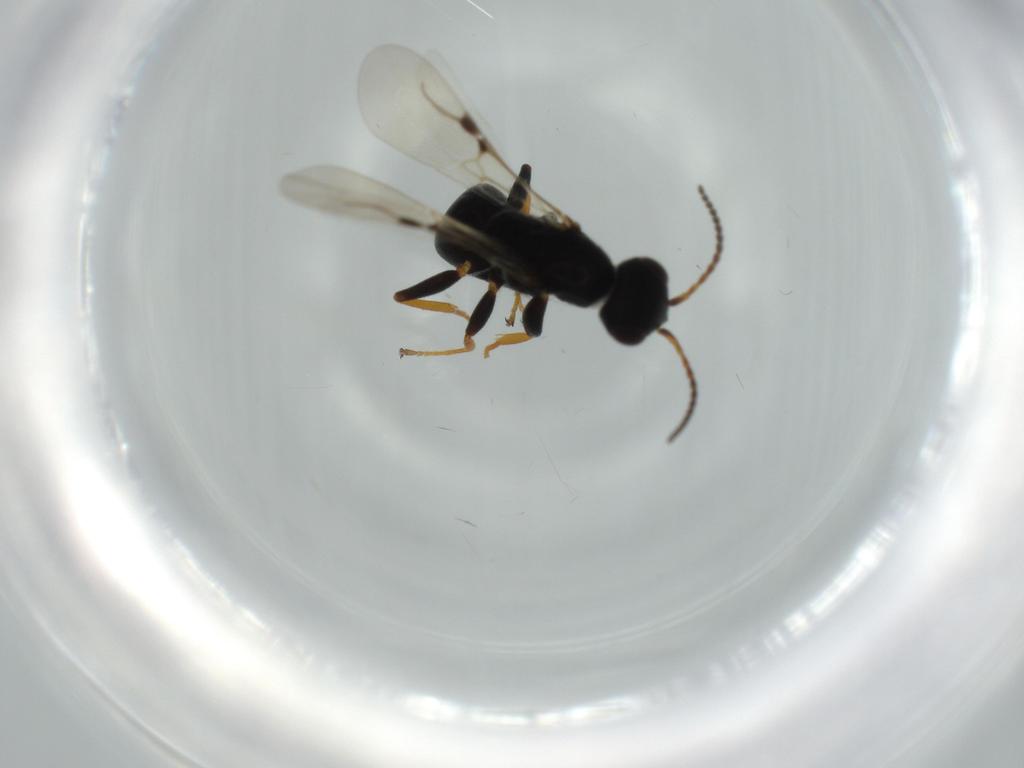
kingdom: Animalia
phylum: Arthropoda
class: Insecta
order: Hymenoptera
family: Bethylidae
